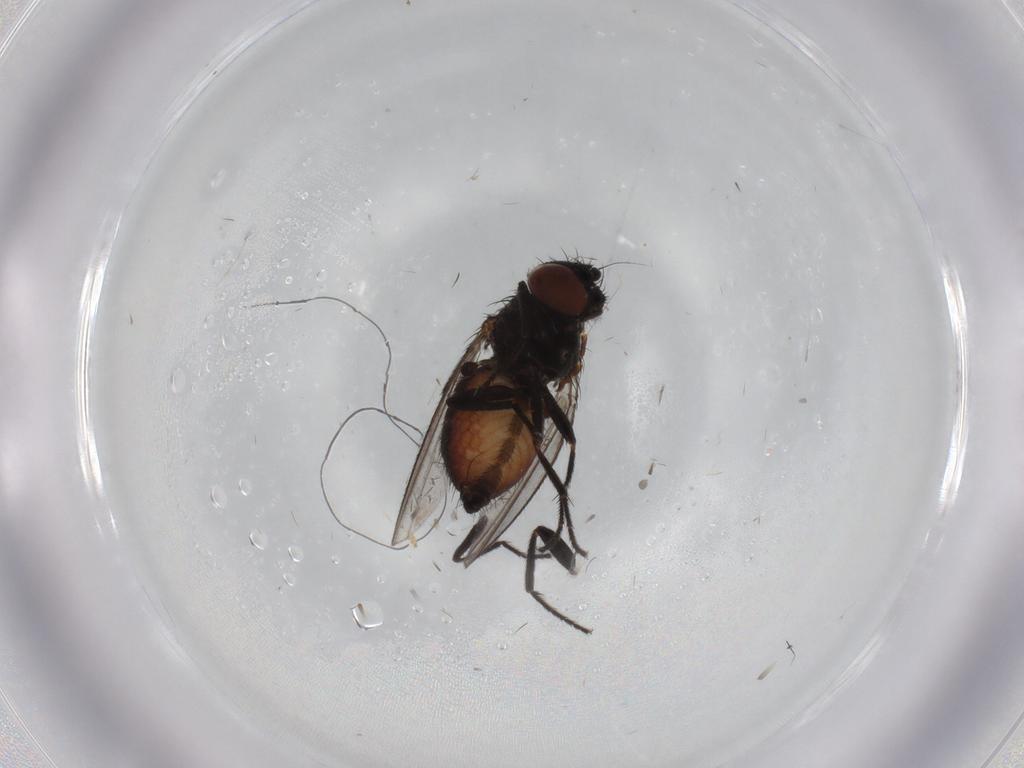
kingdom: Animalia
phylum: Arthropoda
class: Insecta
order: Diptera
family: Milichiidae
